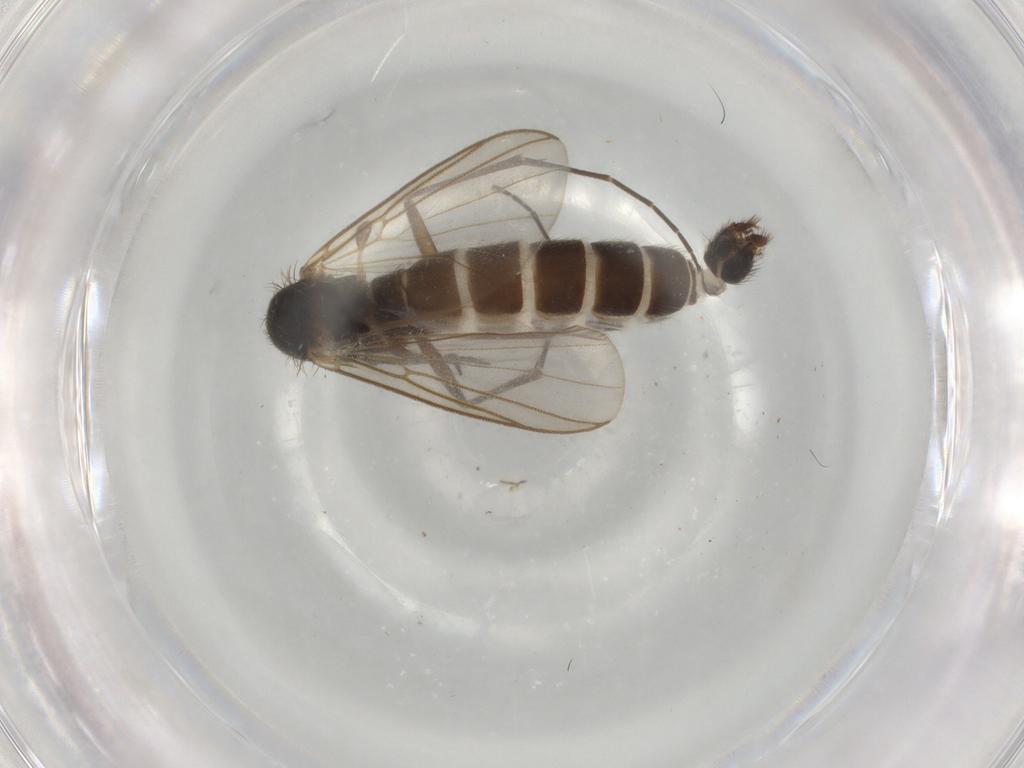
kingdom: Animalia
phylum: Arthropoda
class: Insecta
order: Diptera
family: Mycetophilidae
